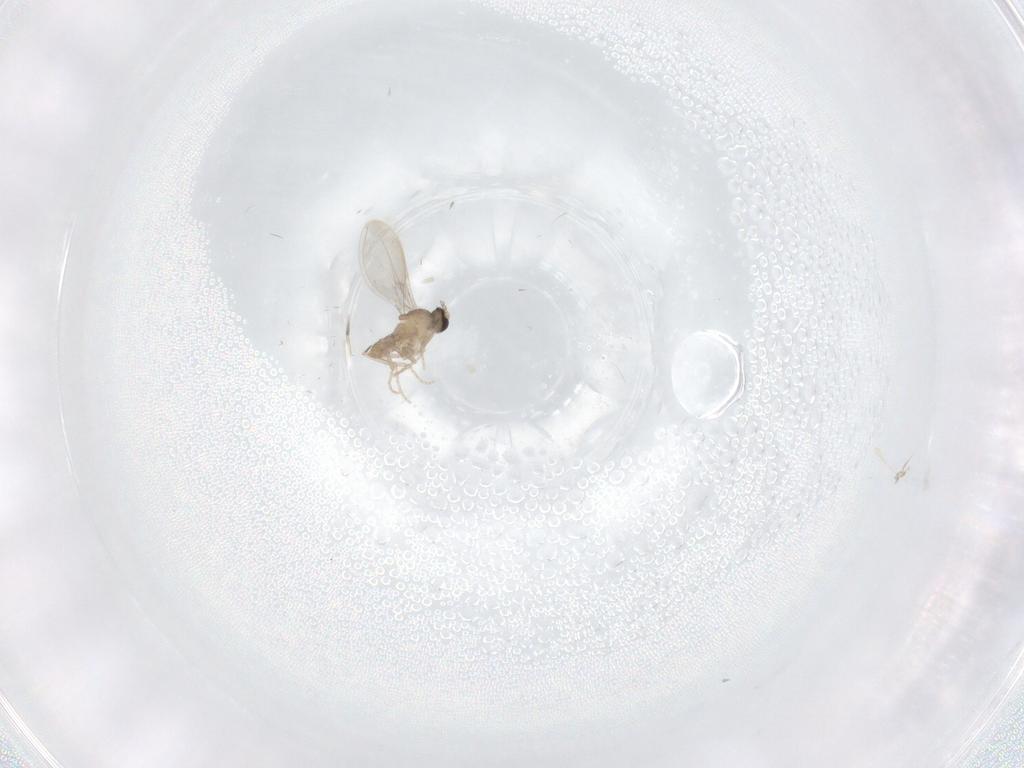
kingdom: Animalia
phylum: Arthropoda
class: Insecta
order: Diptera
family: Cecidomyiidae
